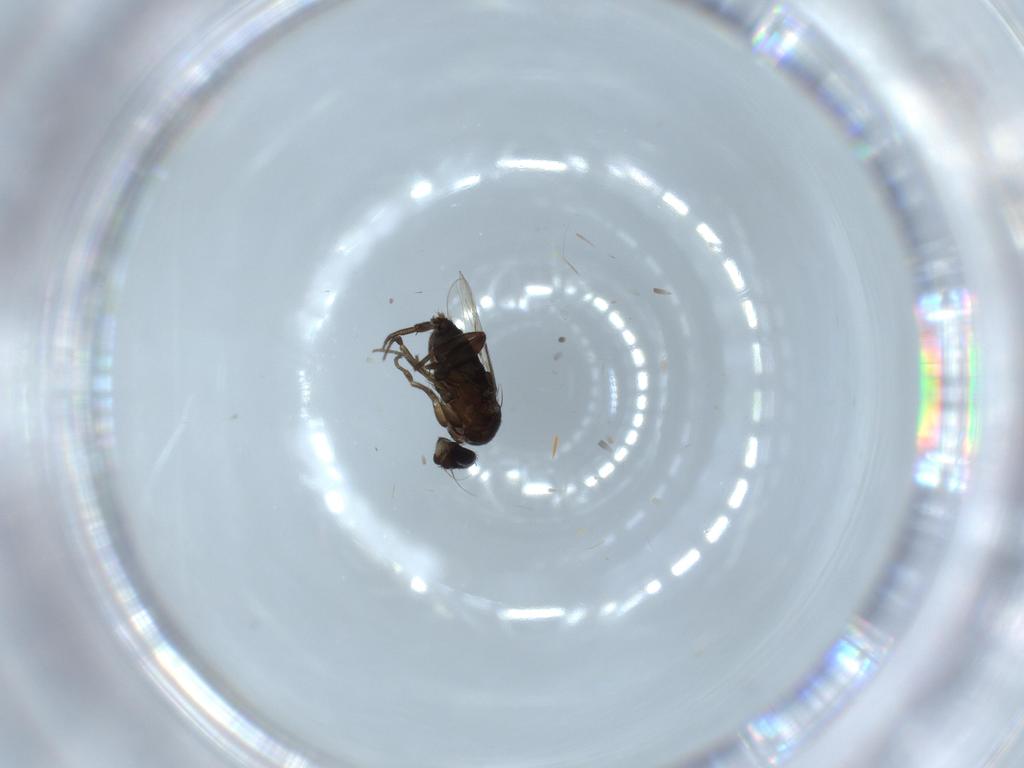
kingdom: Animalia
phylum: Arthropoda
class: Insecta
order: Diptera
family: Phoridae
